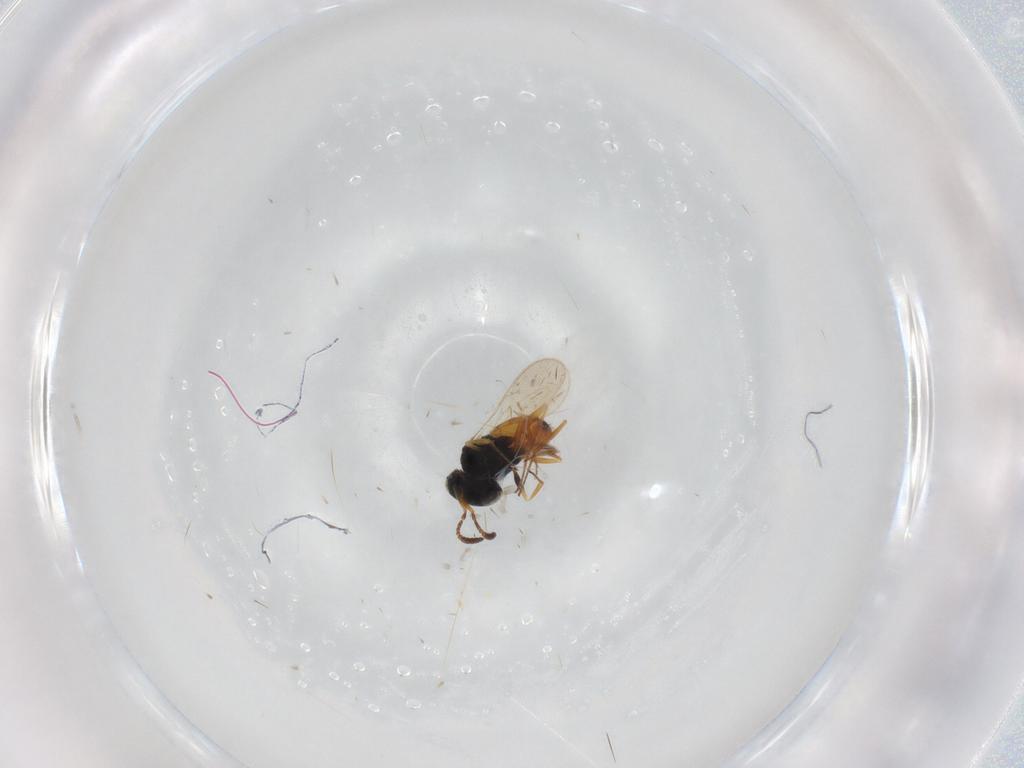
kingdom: Animalia
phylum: Arthropoda
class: Insecta
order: Hymenoptera
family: Scelionidae
